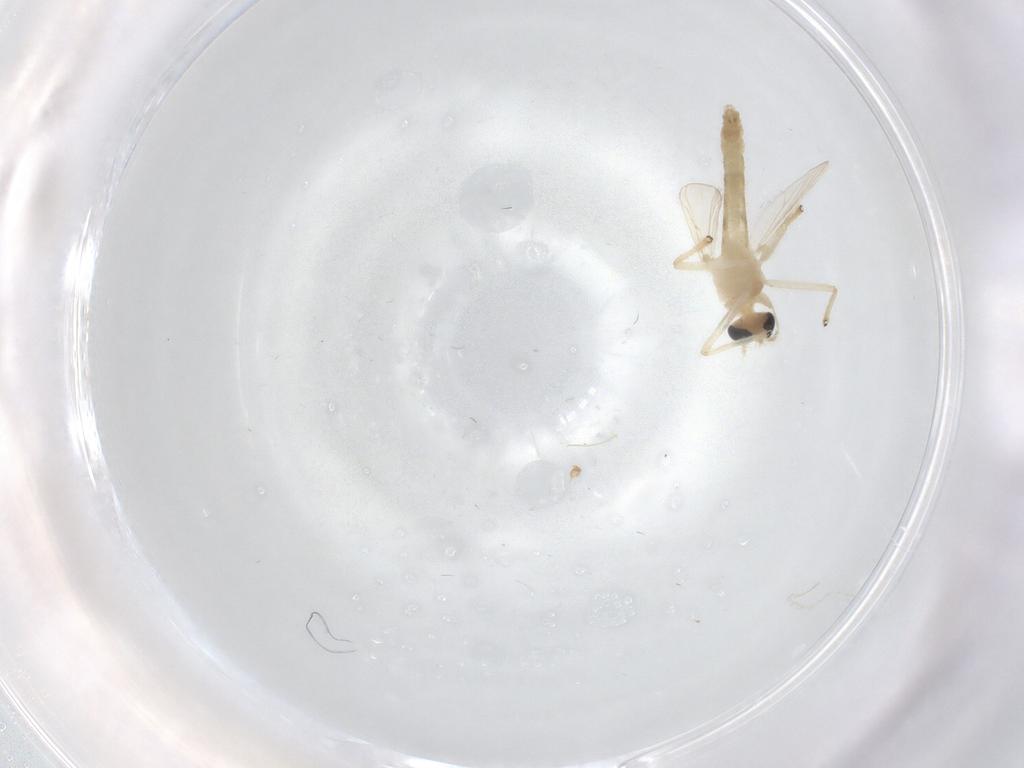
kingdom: Animalia
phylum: Arthropoda
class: Insecta
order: Diptera
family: Chironomidae
